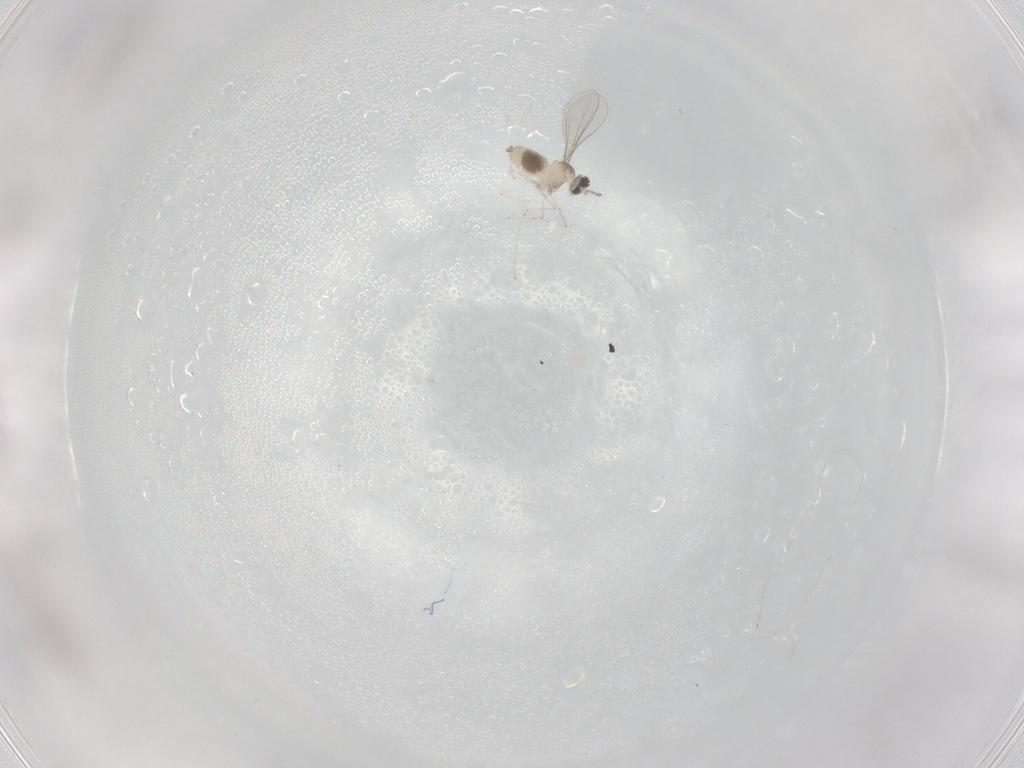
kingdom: Animalia
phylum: Arthropoda
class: Insecta
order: Diptera
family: Cecidomyiidae
